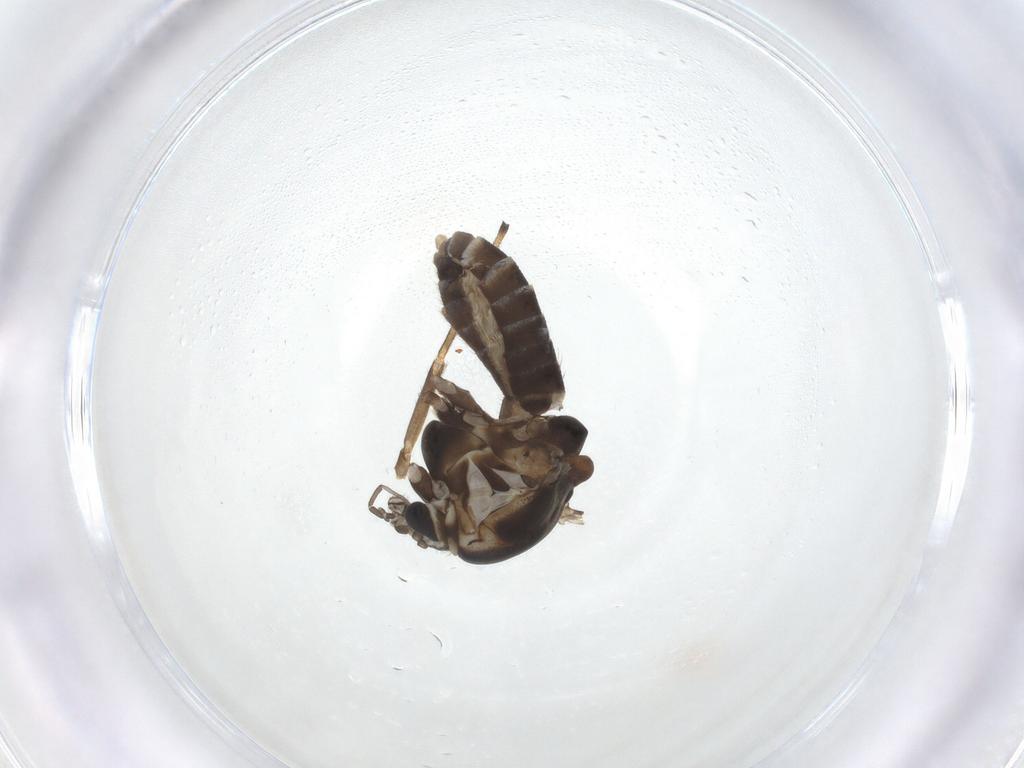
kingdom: Animalia
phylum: Arthropoda
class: Insecta
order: Diptera
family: Chironomidae
